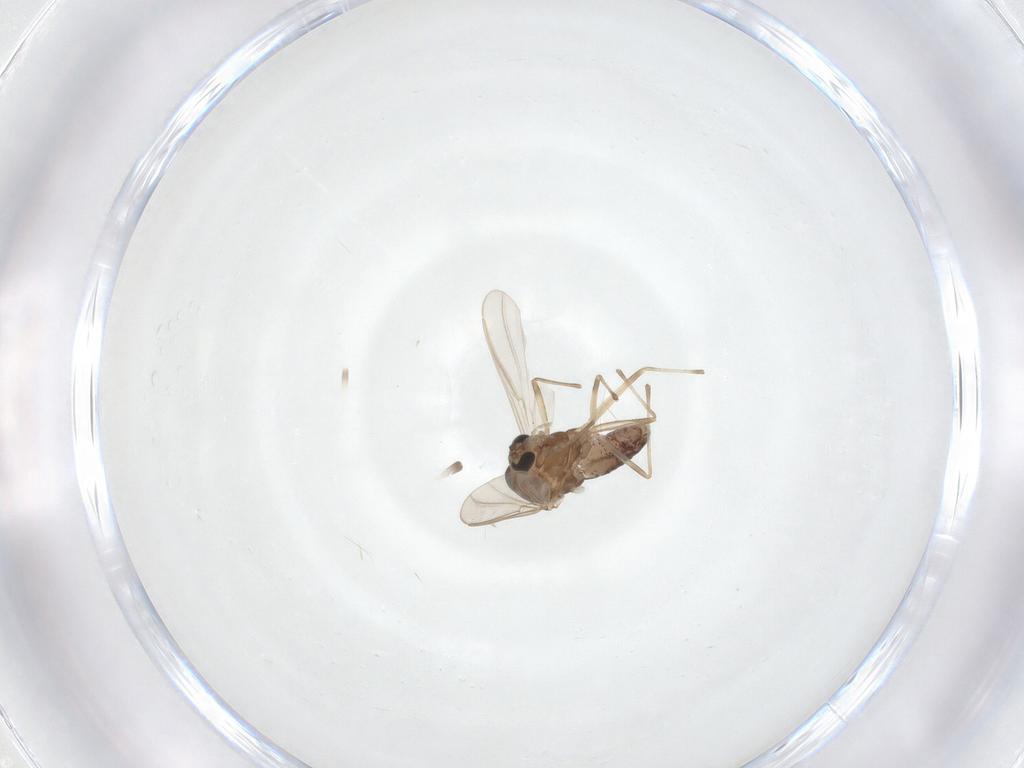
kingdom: Animalia
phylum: Arthropoda
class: Insecta
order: Diptera
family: Chironomidae
